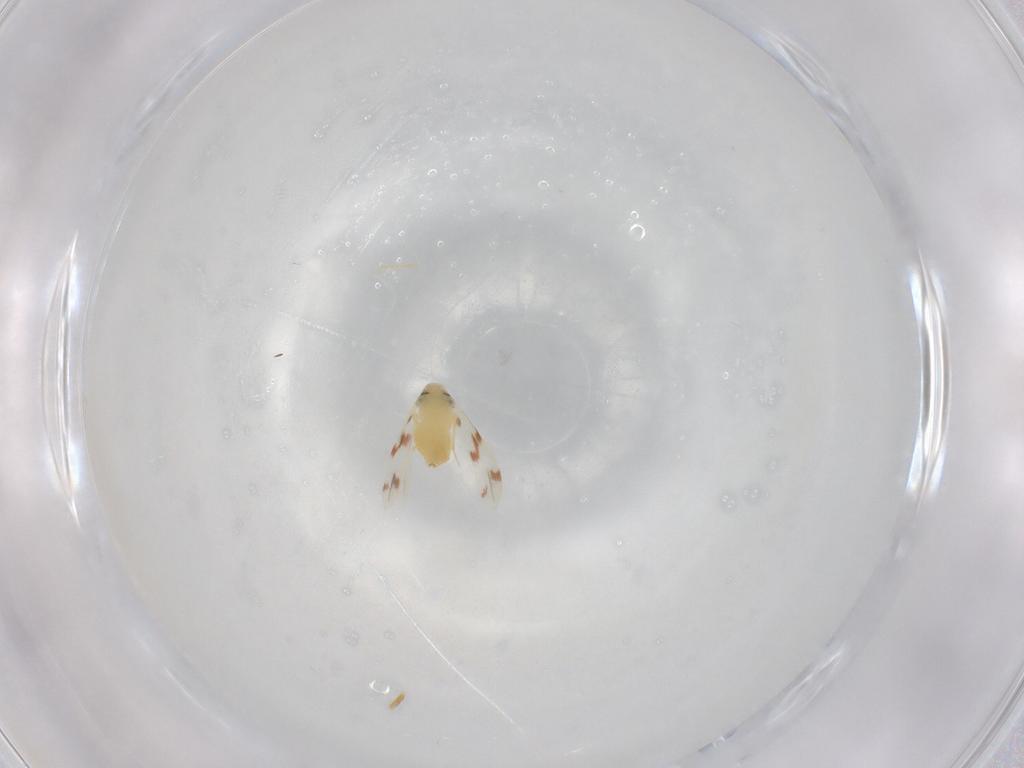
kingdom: Animalia
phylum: Arthropoda
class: Insecta
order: Hemiptera
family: Aleyrodidae
